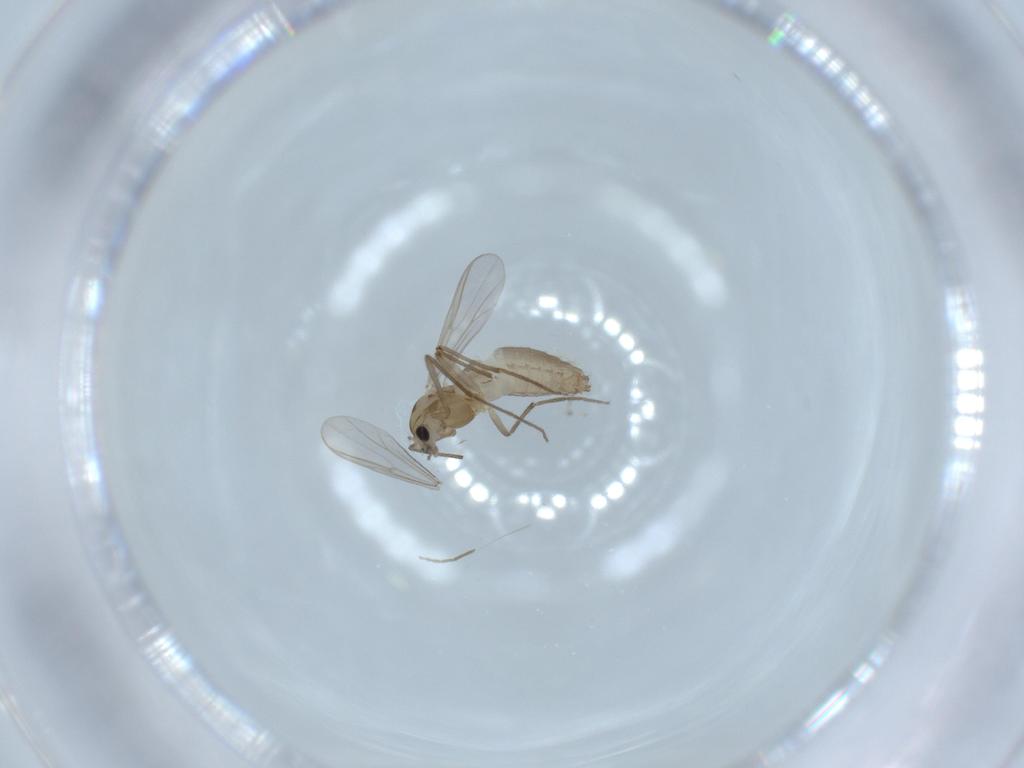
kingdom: Animalia
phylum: Arthropoda
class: Insecta
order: Diptera
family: Chironomidae
